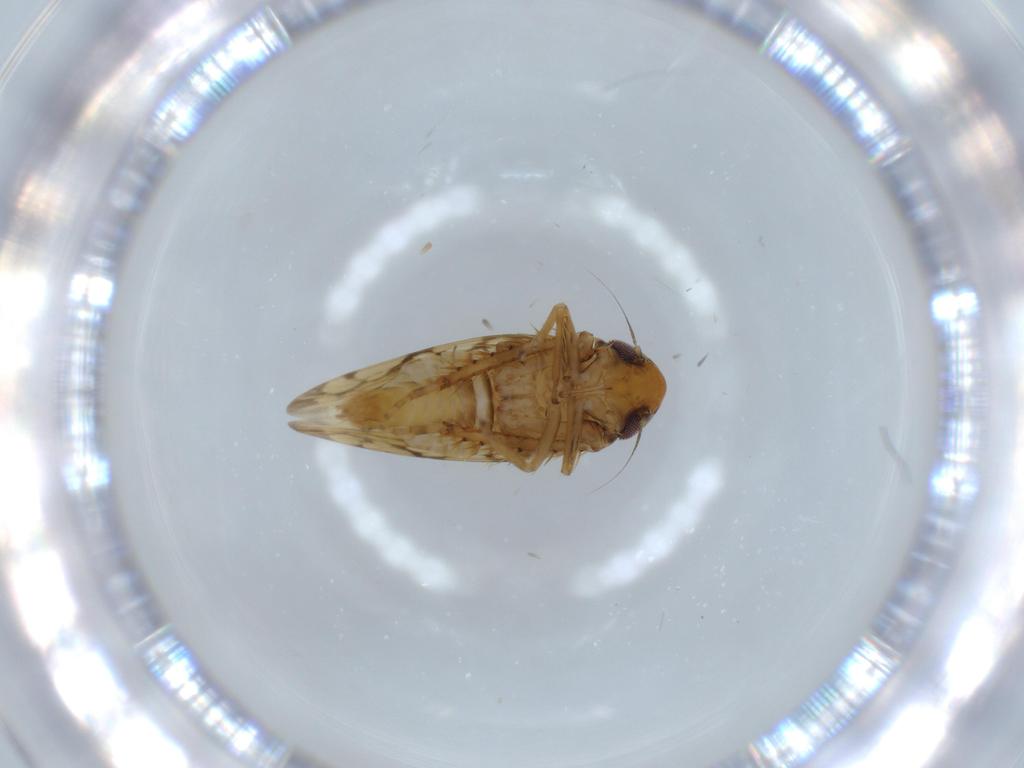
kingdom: Animalia
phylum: Arthropoda
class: Insecta
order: Hemiptera
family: Cicadellidae
